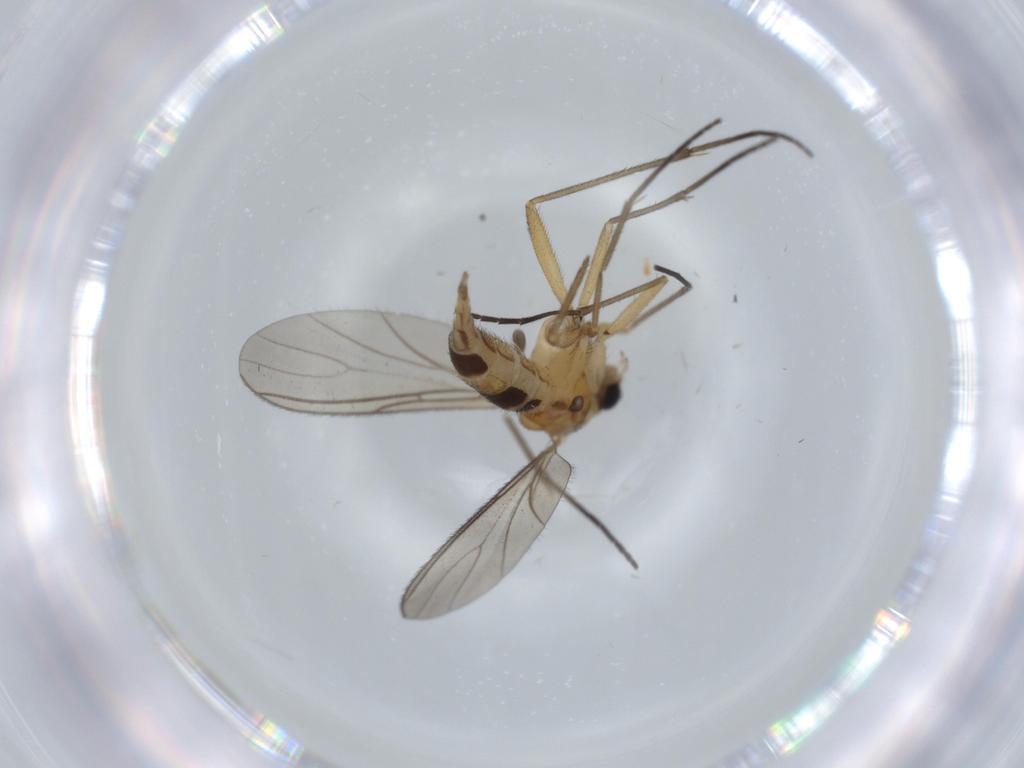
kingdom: Animalia
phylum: Arthropoda
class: Insecta
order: Diptera
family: Sciaridae
